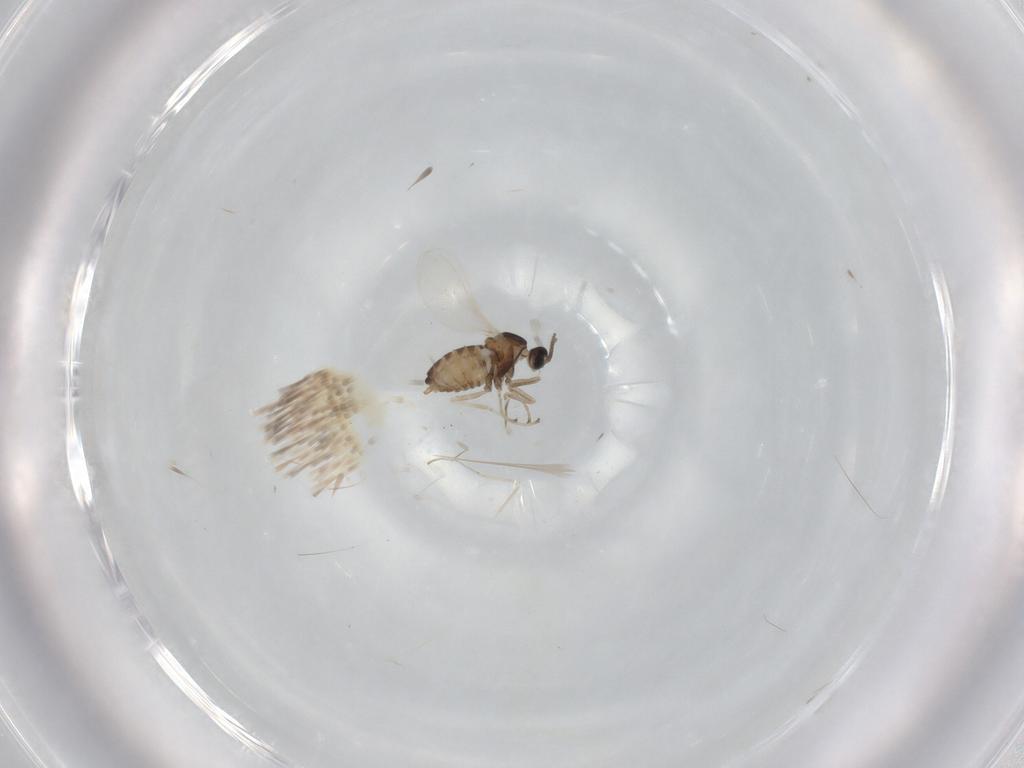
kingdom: Animalia
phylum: Arthropoda
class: Insecta
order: Diptera
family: Cecidomyiidae
